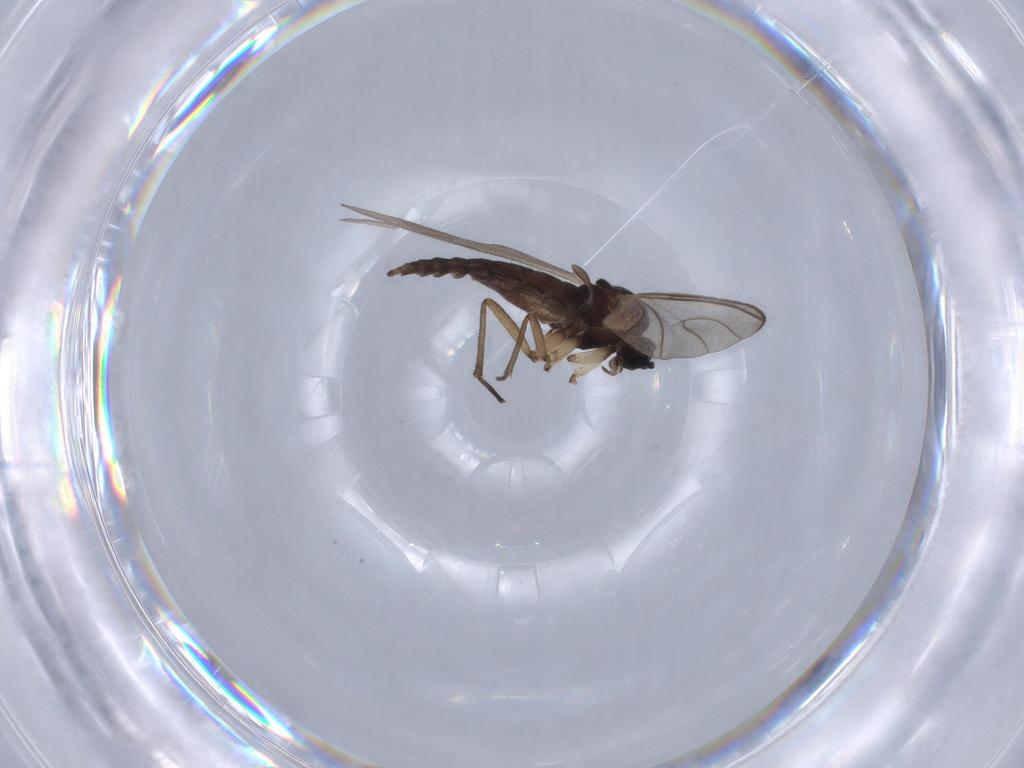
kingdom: Animalia
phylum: Arthropoda
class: Insecta
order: Diptera
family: Sciaridae
